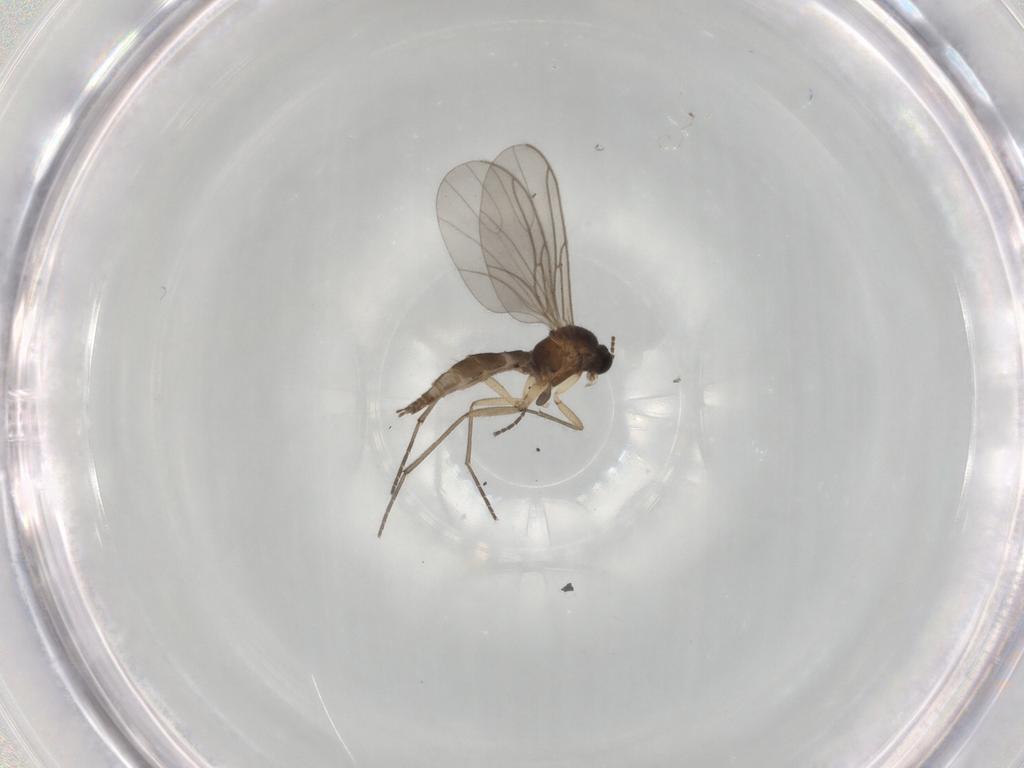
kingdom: Animalia
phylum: Arthropoda
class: Insecta
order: Diptera
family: Sciaridae
